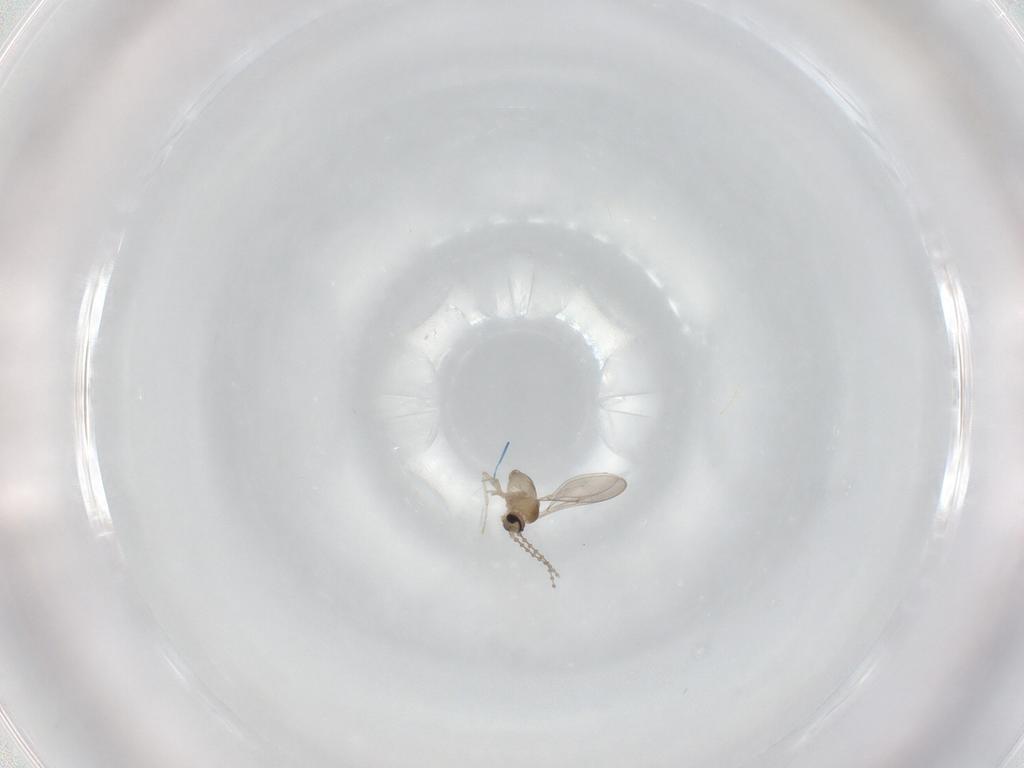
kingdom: Animalia
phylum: Arthropoda
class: Insecta
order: Diptera
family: Cecidomyiidae
